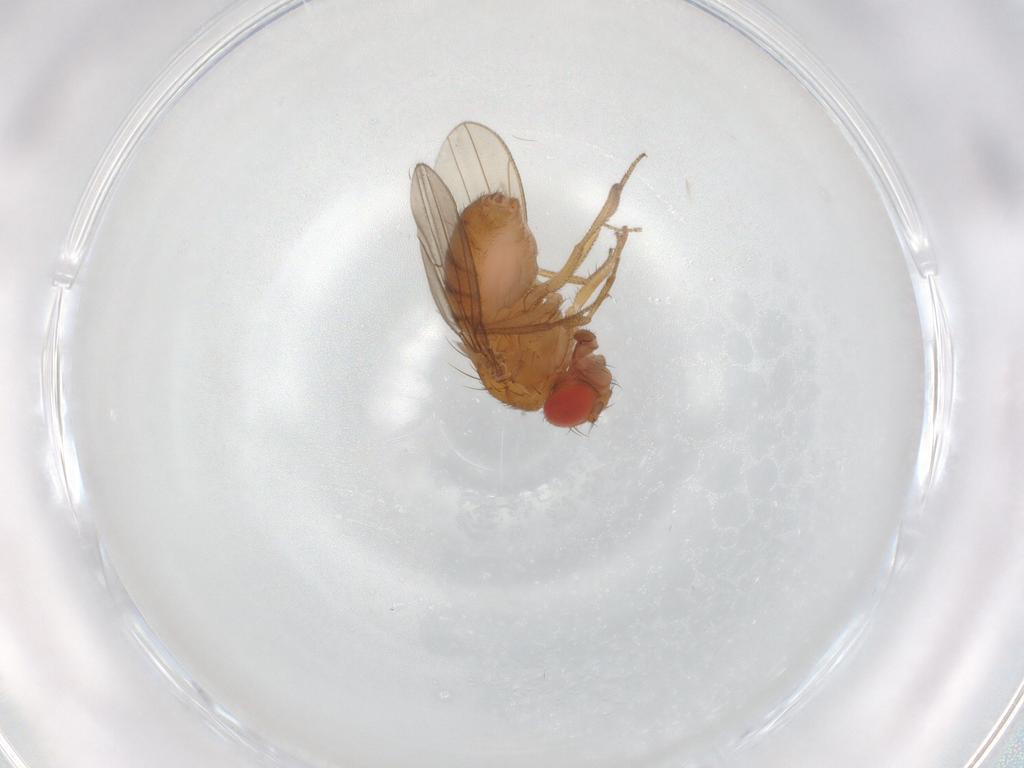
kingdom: Animalia
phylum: Arthropoda
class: Insecta
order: Diptera
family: Drosophilidae
